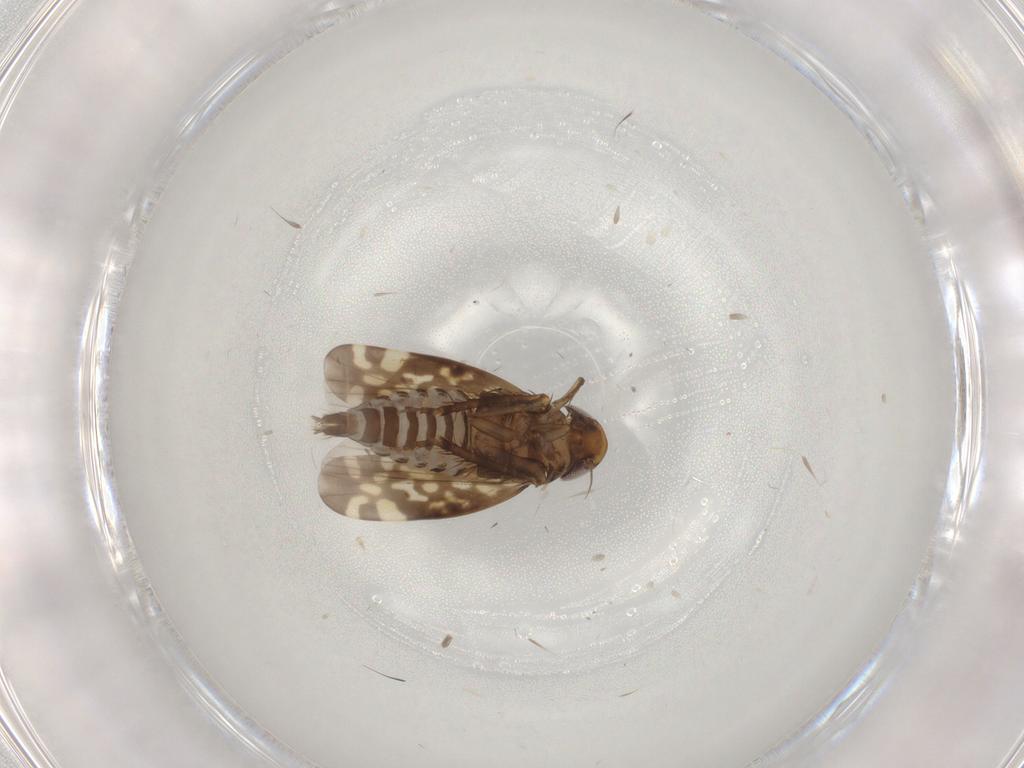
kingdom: Animalia
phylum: Arthropoda
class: Insecta
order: Hemiptera
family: Cicadellidae
